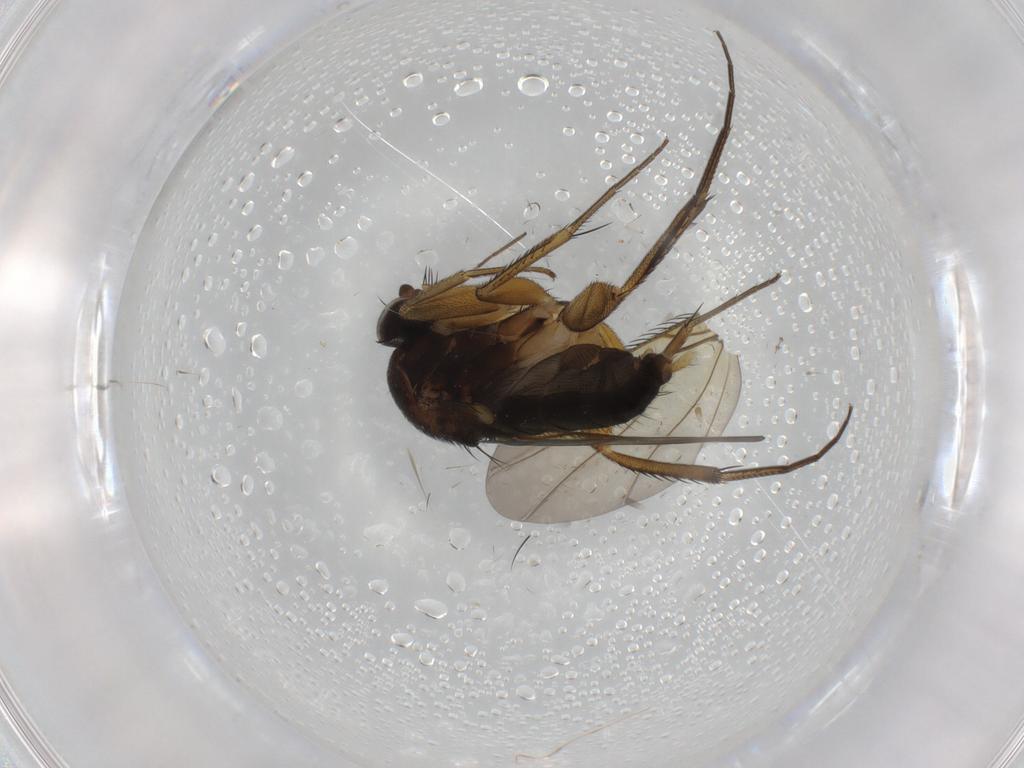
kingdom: Animalia
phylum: Arthropoda
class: Insecta
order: Diptera
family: Phoridae
